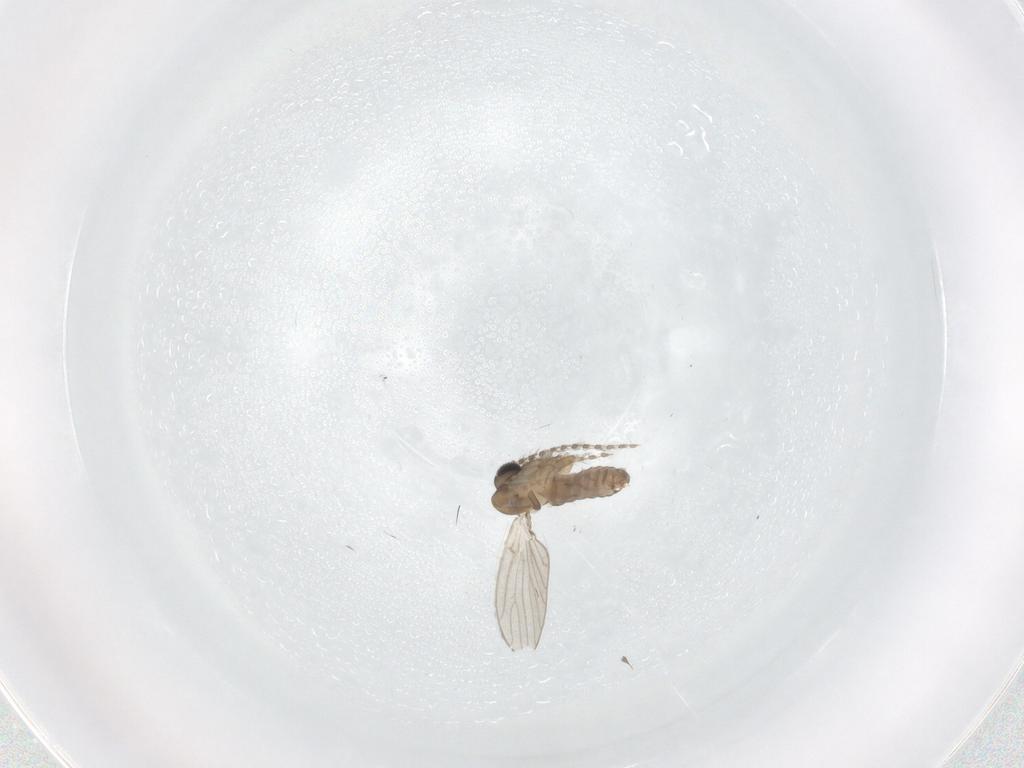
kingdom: Animalia
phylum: Arthropoda
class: Insecta
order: Diptera
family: Psychodidae
